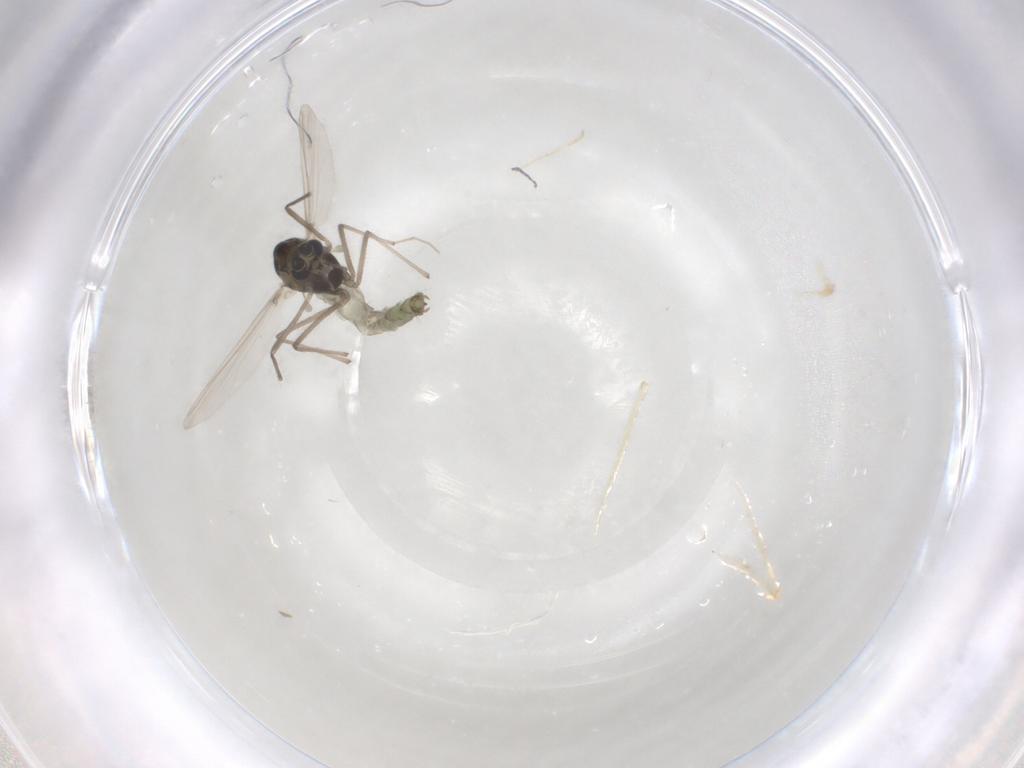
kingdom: Animalia
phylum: Arthropoda
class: Insecta
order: Diptera
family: Chironomidae
